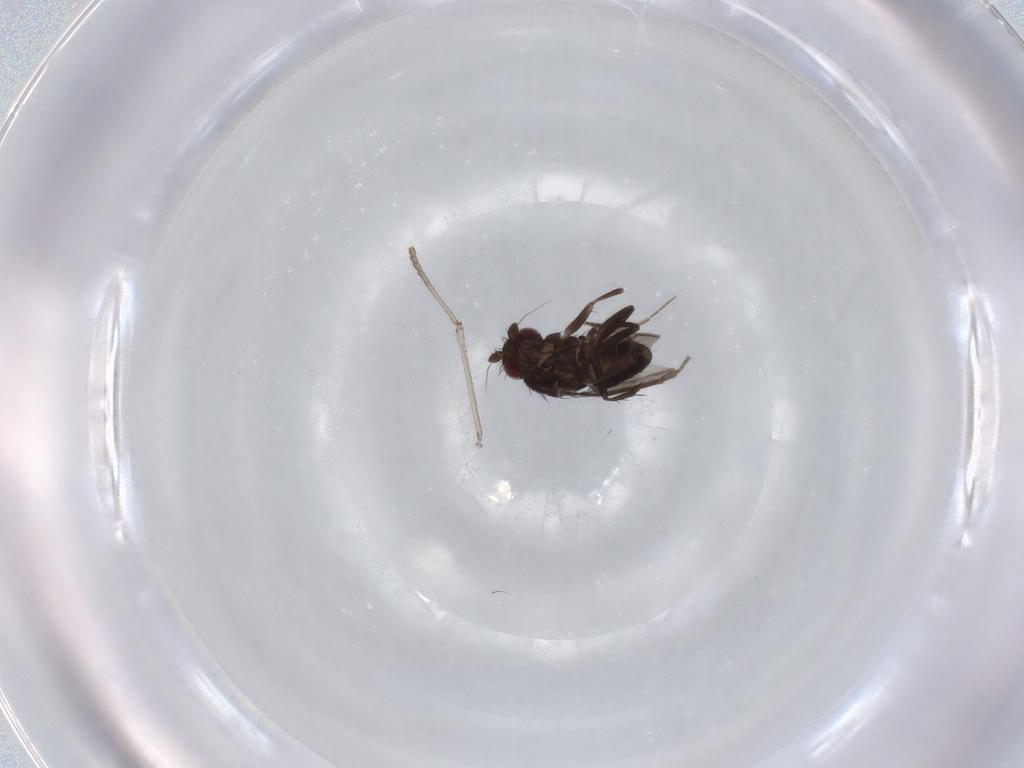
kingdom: Animalia
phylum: Arthropoda
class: Insecta
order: Diptera
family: Sphaeroceridae
